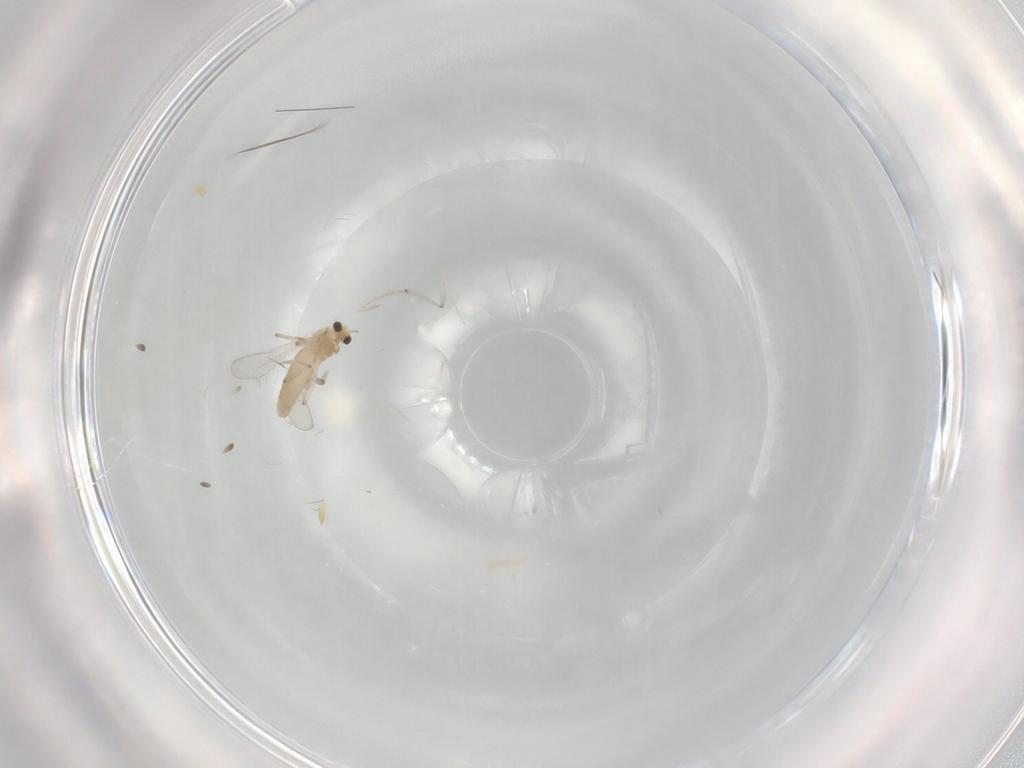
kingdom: Animalia
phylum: Arthropoda
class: Insecta
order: Diptera
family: Chironomidae
